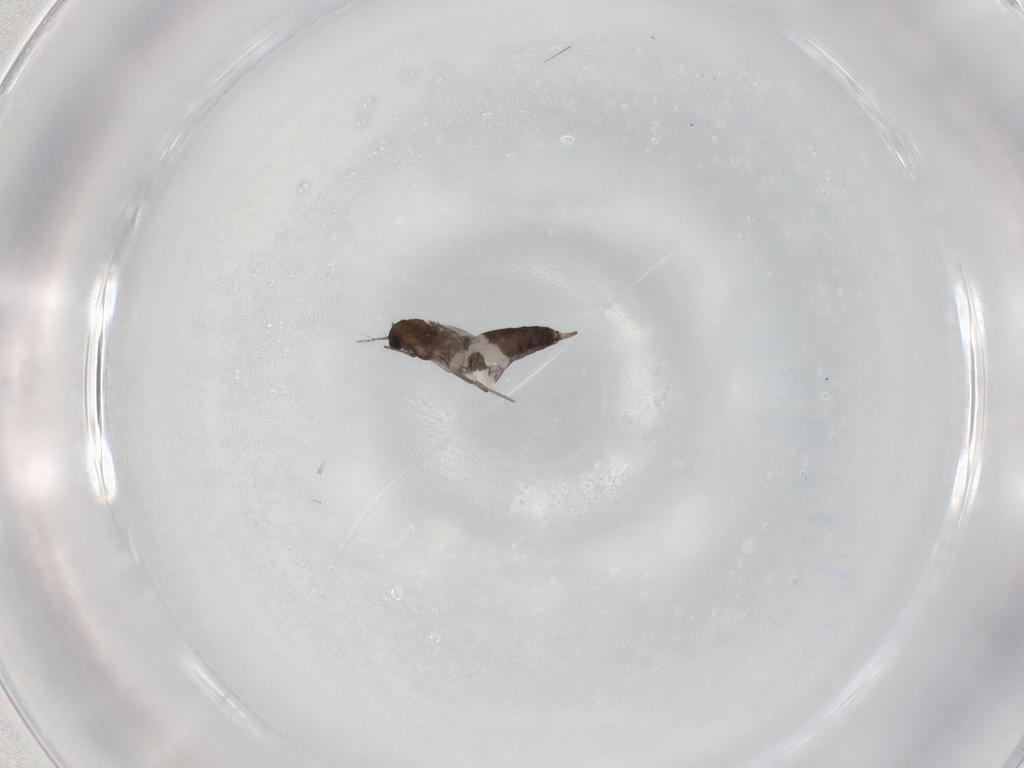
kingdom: Animalia
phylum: Arthropoda
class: Insecta
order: Diptera
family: Chironomidae
